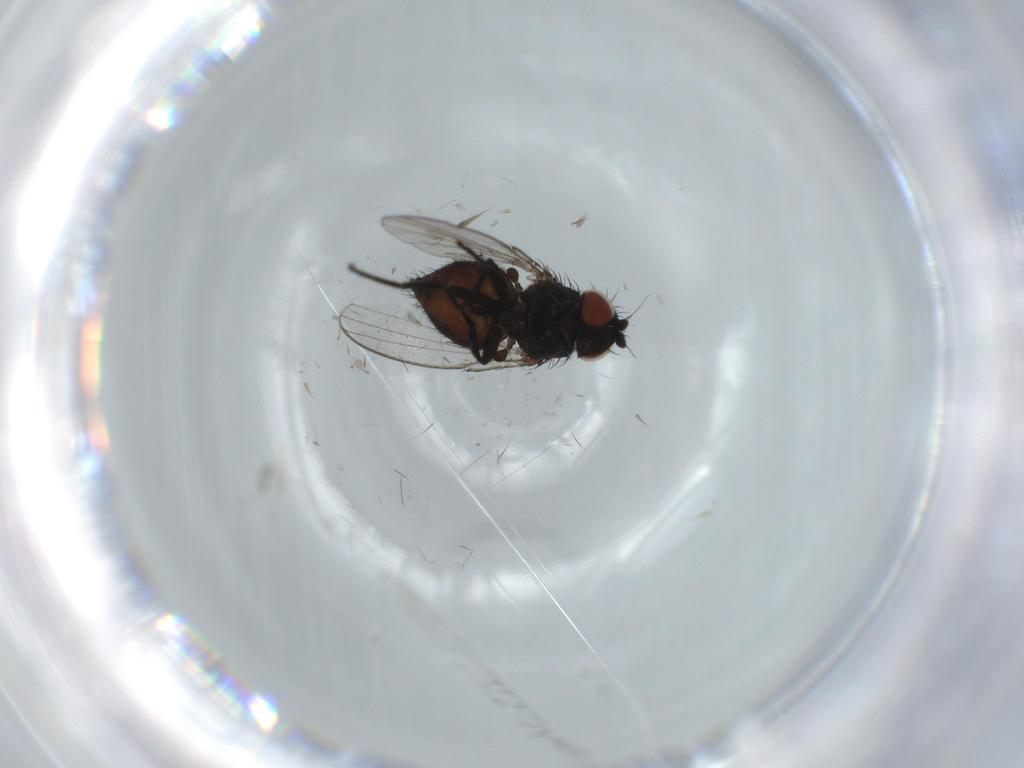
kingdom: Animalia
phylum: Arthropoda
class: Insecta
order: Diptera
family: Chironomidae
